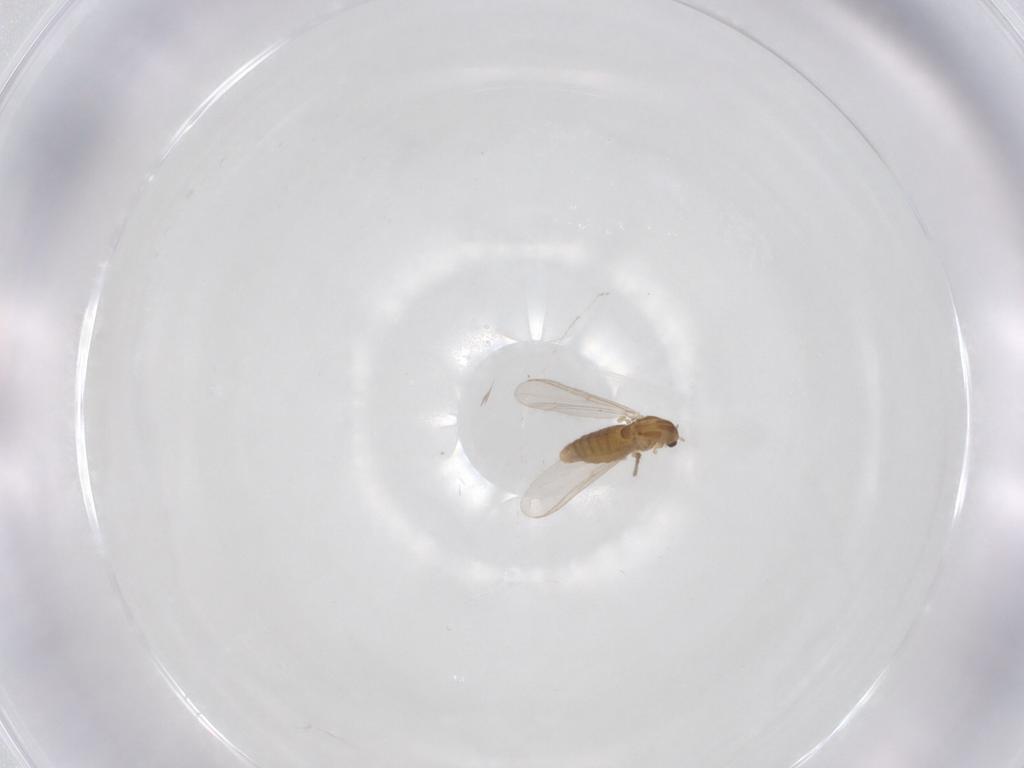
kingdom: Animalia
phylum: Arthropoda
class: Insecta
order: Diptera
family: Chironomidae
